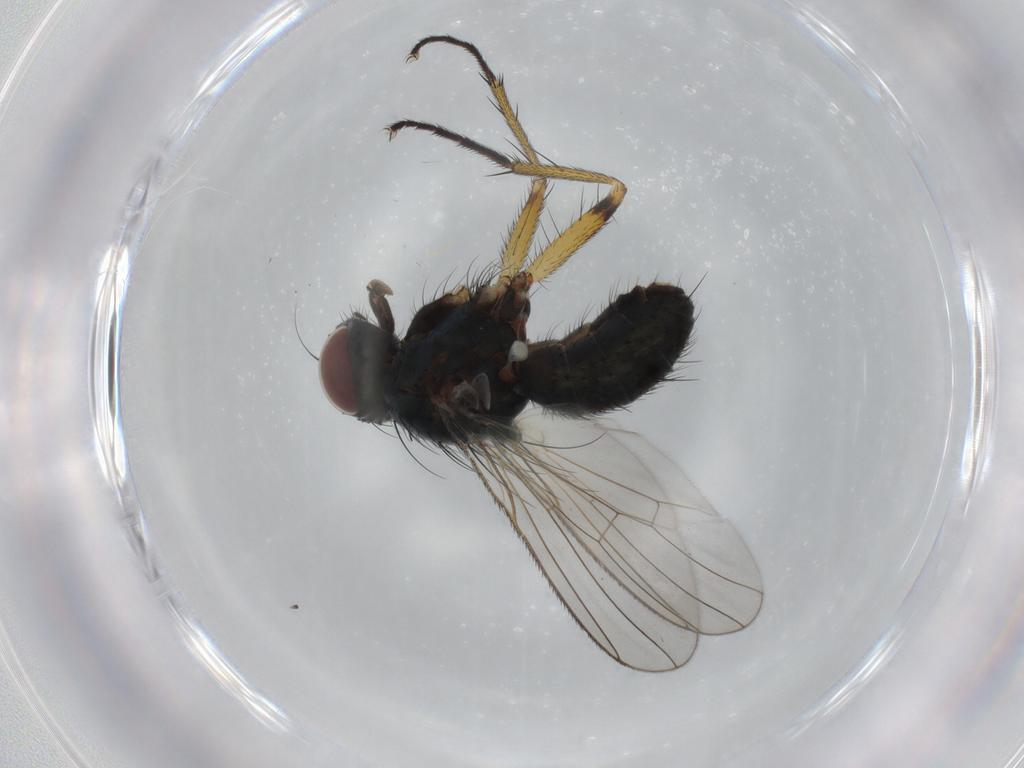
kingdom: Animalia
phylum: Arthropoda
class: Insecta
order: Diptera
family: Muscidae
